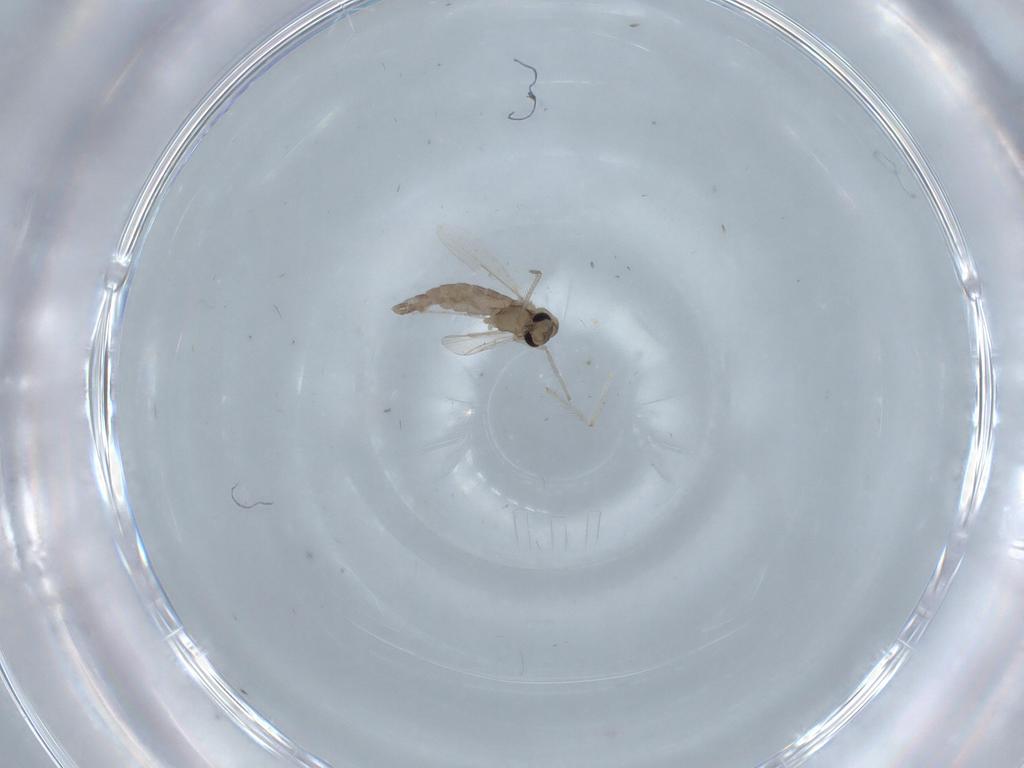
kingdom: Animalia
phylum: Arthropoda
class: Insecta
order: Diptera
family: Chironomidae
